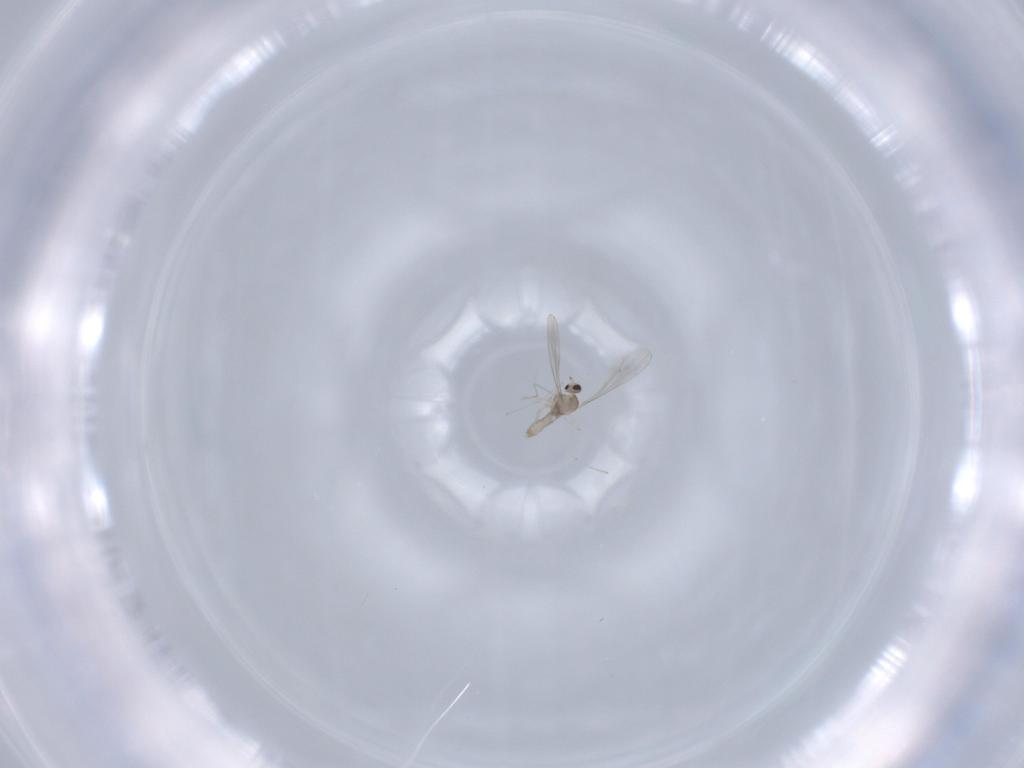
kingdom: Animalia
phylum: Arthropoda
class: Insecta
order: Diptera
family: Cecidomyiidae
